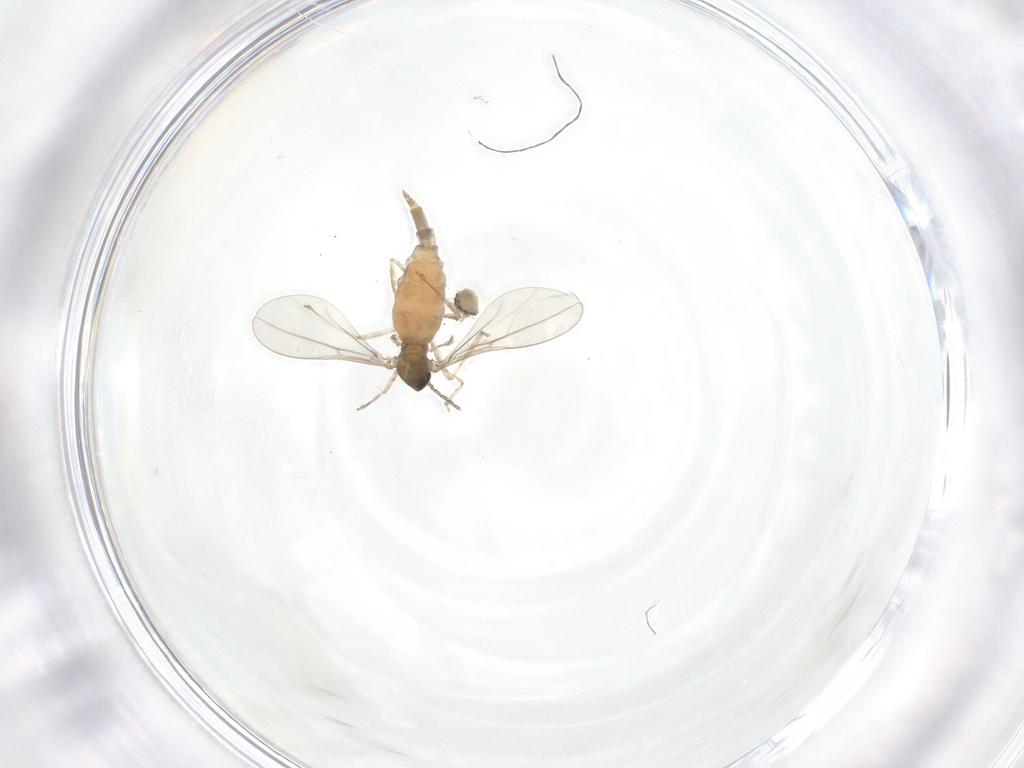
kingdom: Animalia
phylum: Arthropoda
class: Insecta
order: Diptera
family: Cecidomyiidae
